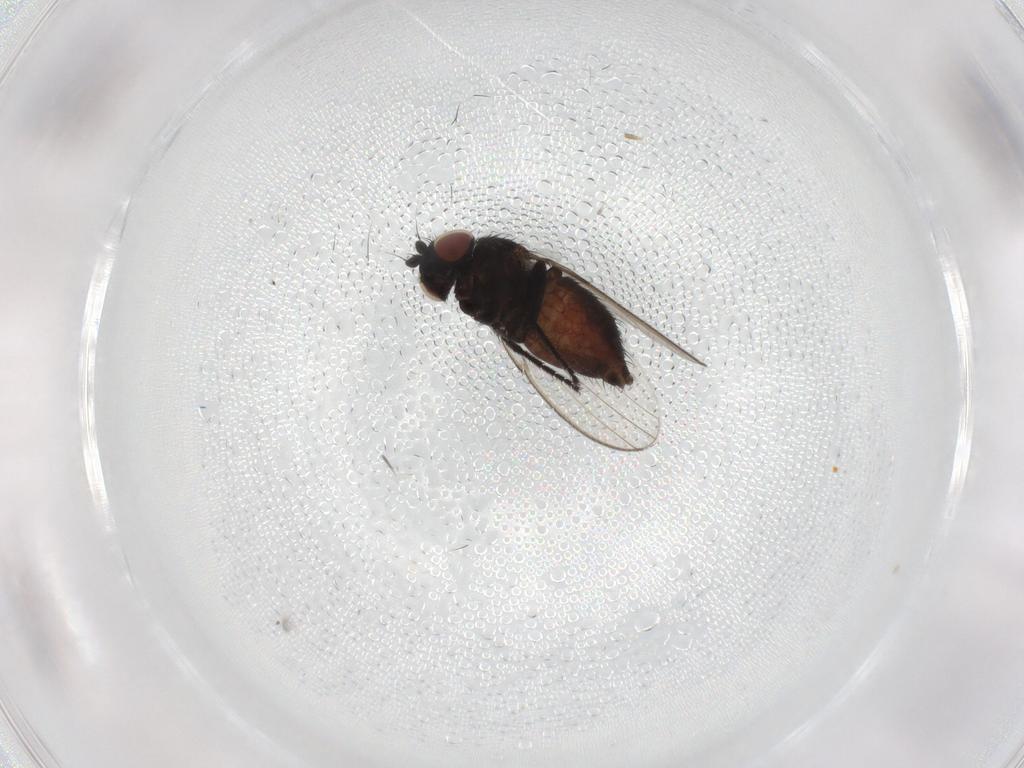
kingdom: Animalia
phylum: Arthropoda
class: Insecta
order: Diptera
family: Milichiidae
